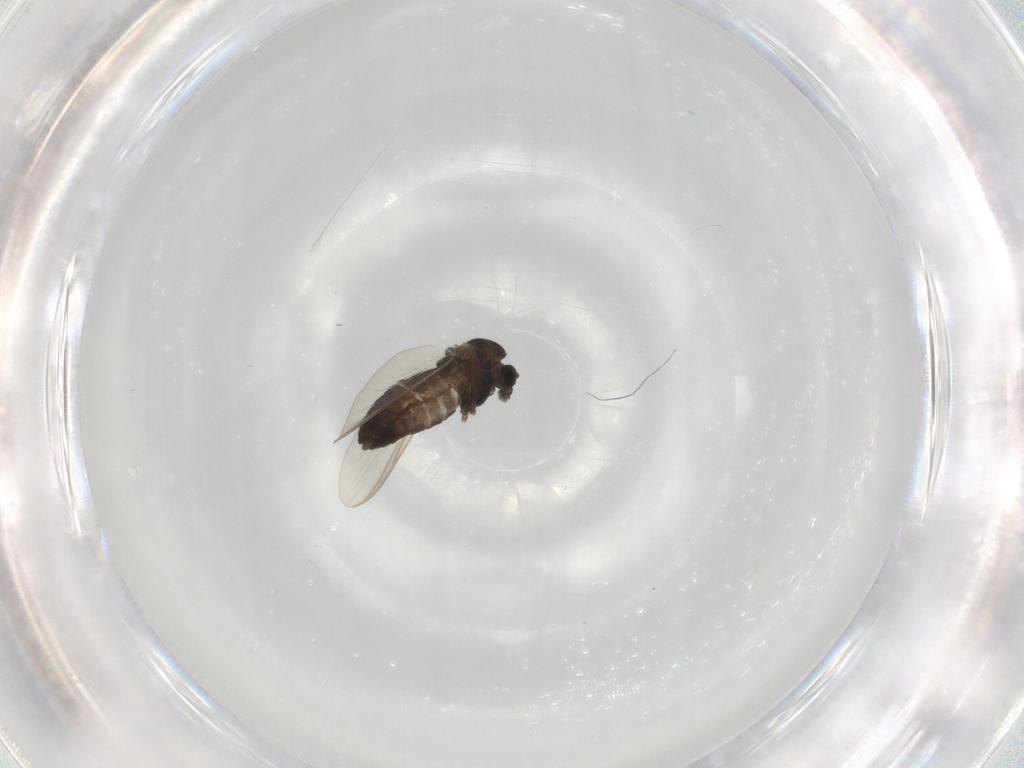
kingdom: Animalia
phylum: Arthropoda
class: Insecta
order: Diptera
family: Chironomidae
